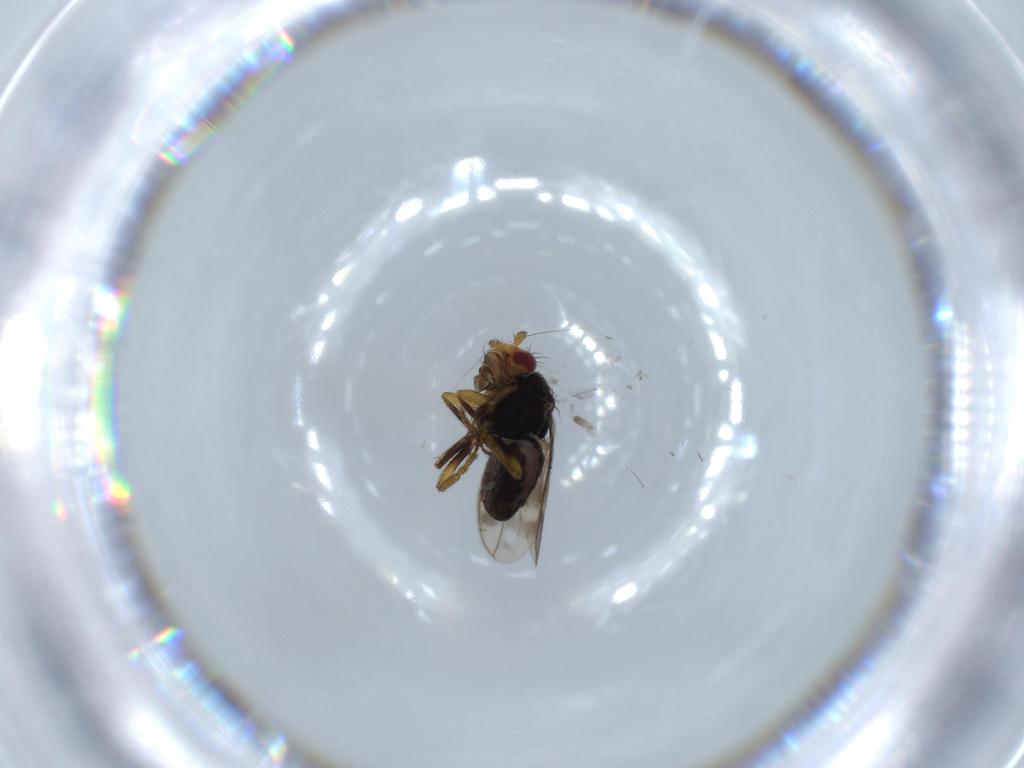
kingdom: Animalia
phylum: Arthropoda
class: Insecta
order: Diptera
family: Sphaeroceridae
